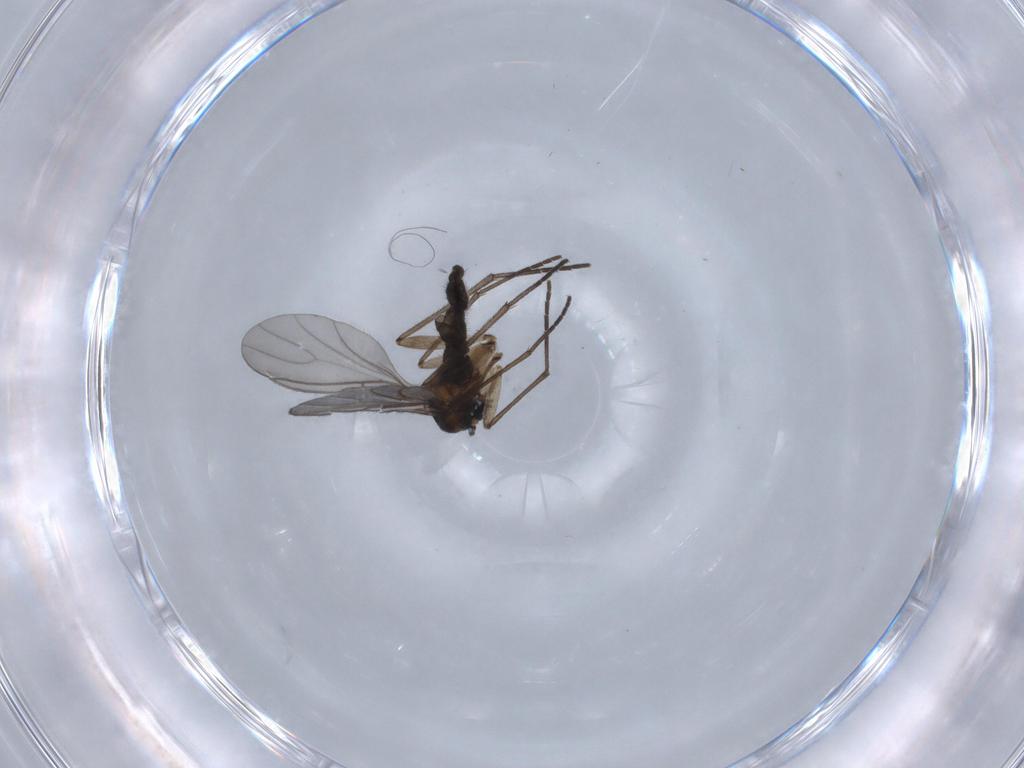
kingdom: Animalia
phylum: Arthropoda
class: Insecta
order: Diptera
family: Sciaridae
